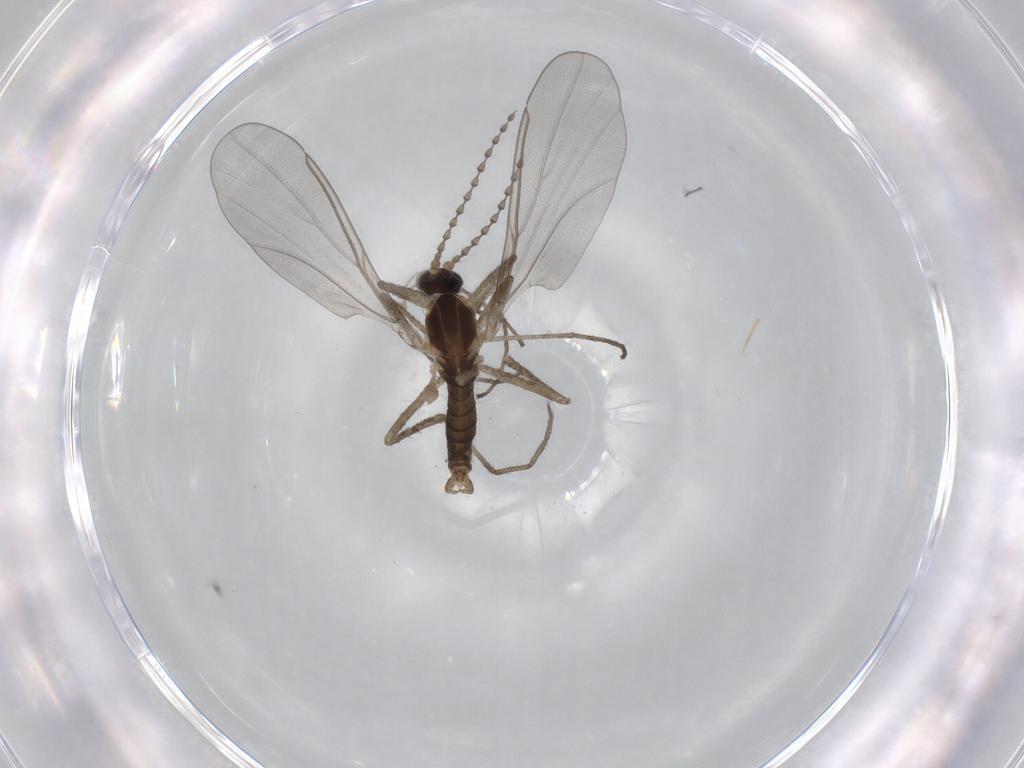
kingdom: Animalia
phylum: Arthropoda
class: Insecta
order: Diptera
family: Cecidomyiidae
